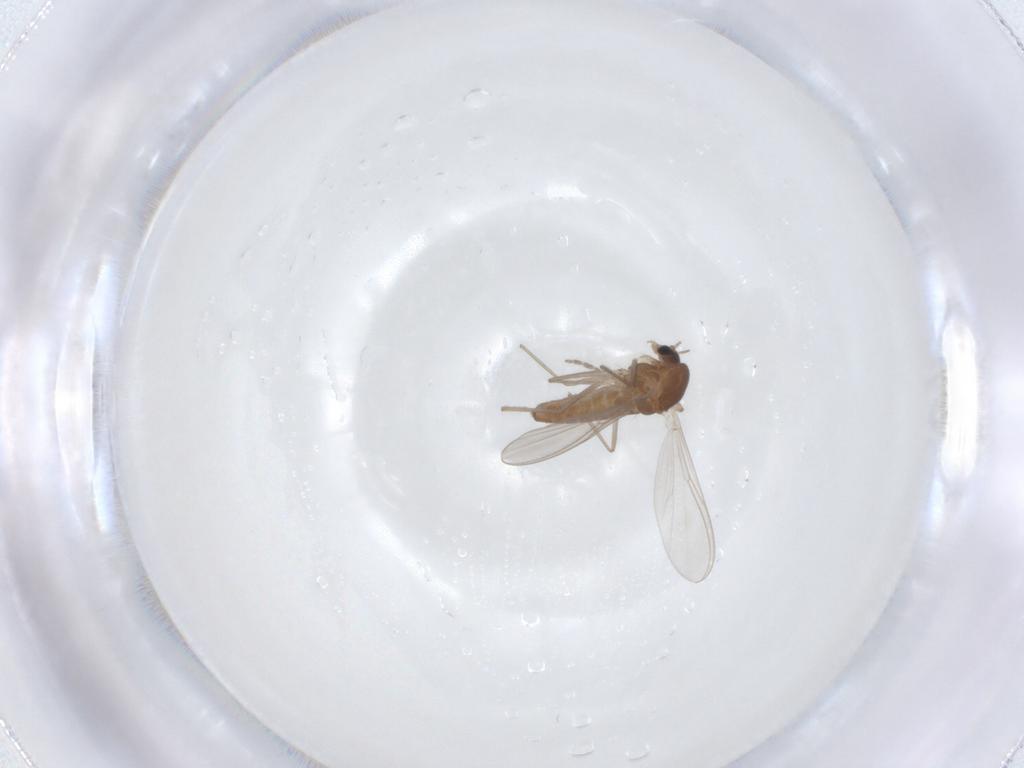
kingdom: Animalia
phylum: Arthropoda
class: Insecta
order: Diptera
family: Chironomidae
